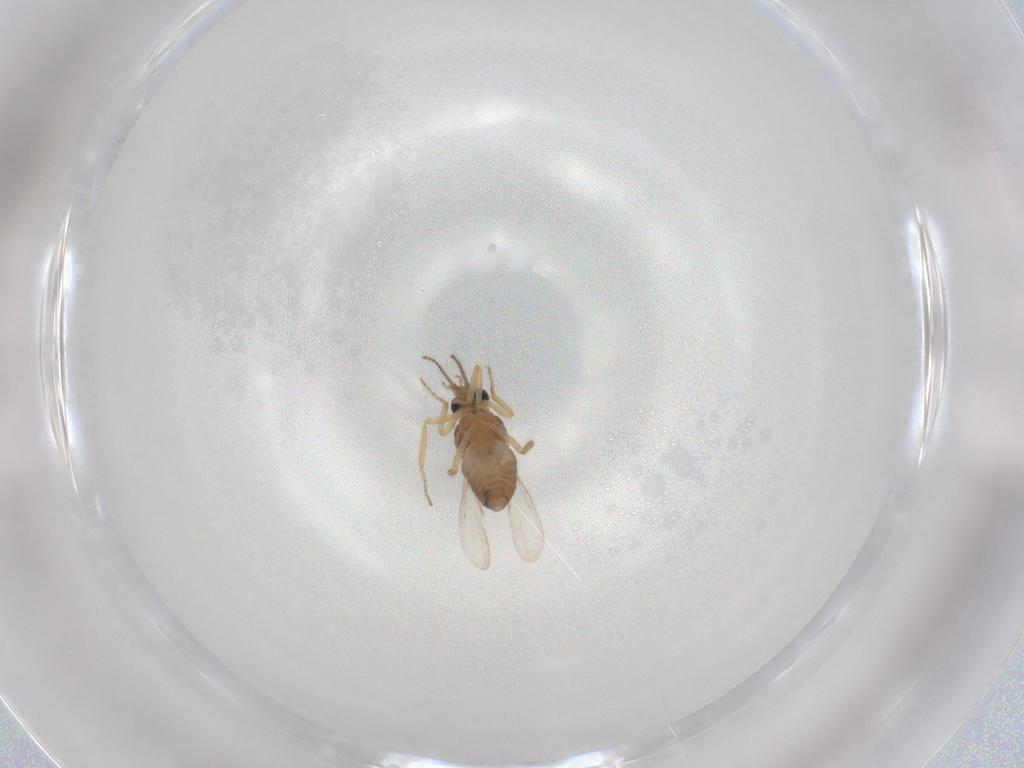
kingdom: Animalia
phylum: Arthropoda
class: Insecta
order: Diptera
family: Ceratopogonidae
